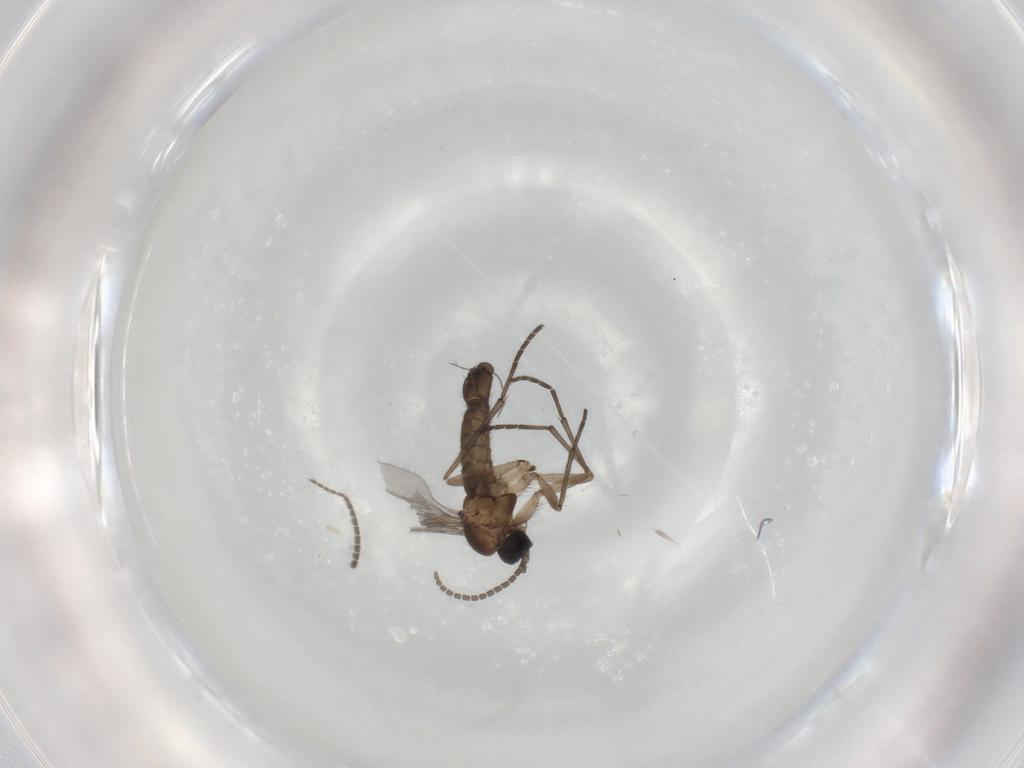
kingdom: Animalia
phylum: Arthropoda
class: Insecta
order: Diptera
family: Sciaridae
